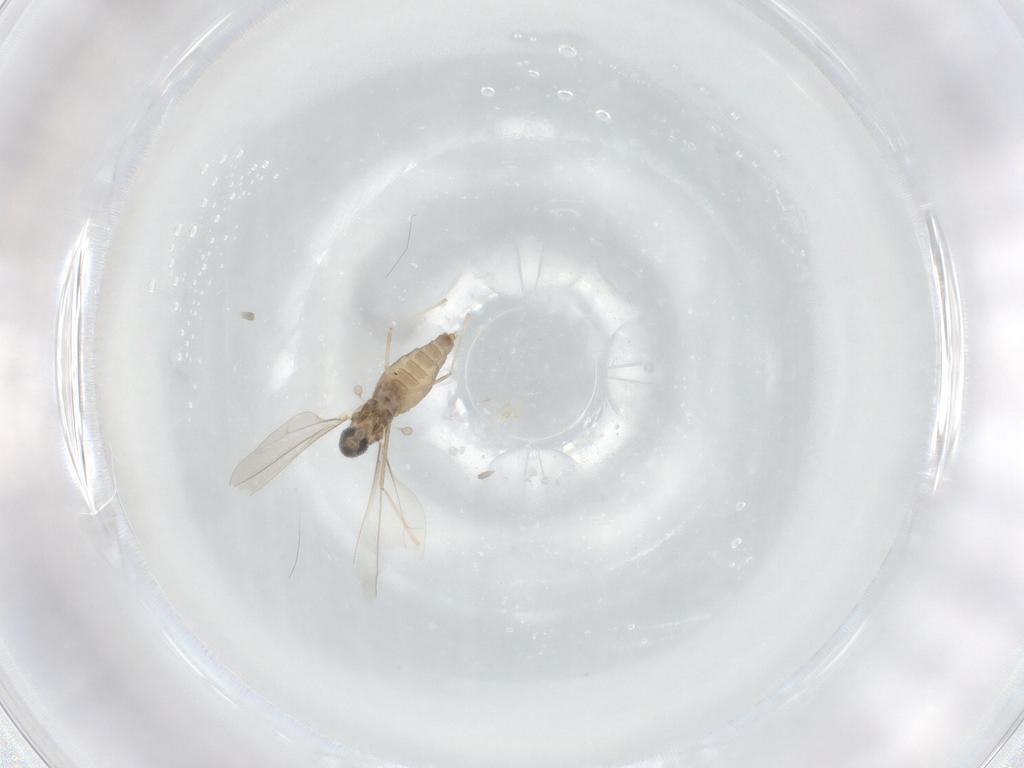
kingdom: Animalia
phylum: Arthropoda
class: Insecta
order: Diptera
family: Cecidomyiidae
